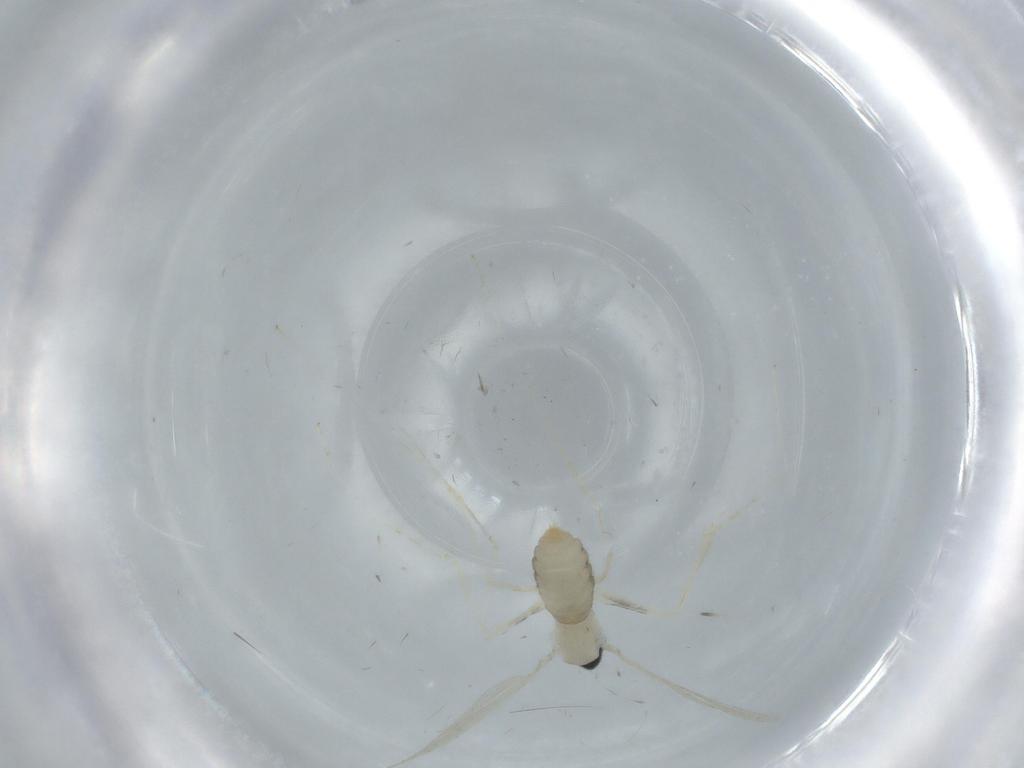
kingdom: Animalia
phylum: Arthropoda
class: Insecta
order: Diptera
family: Cecidomyiidae
